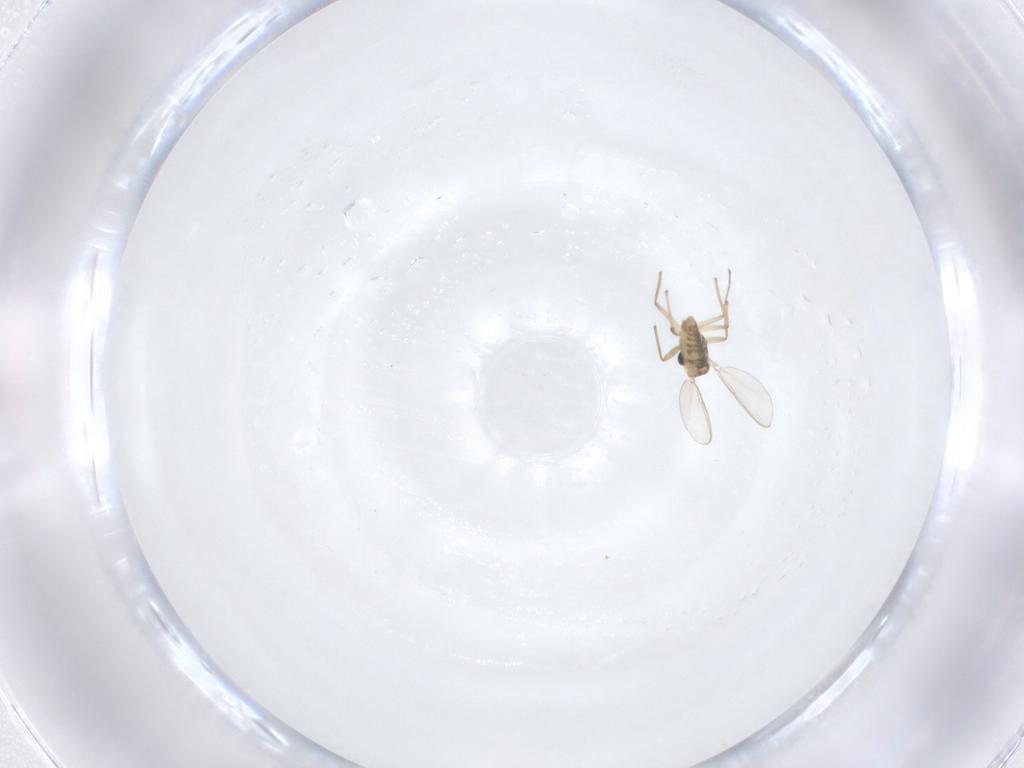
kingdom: Animalia
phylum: Arthropoda
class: Insecta
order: Diptera
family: Chironomidae
